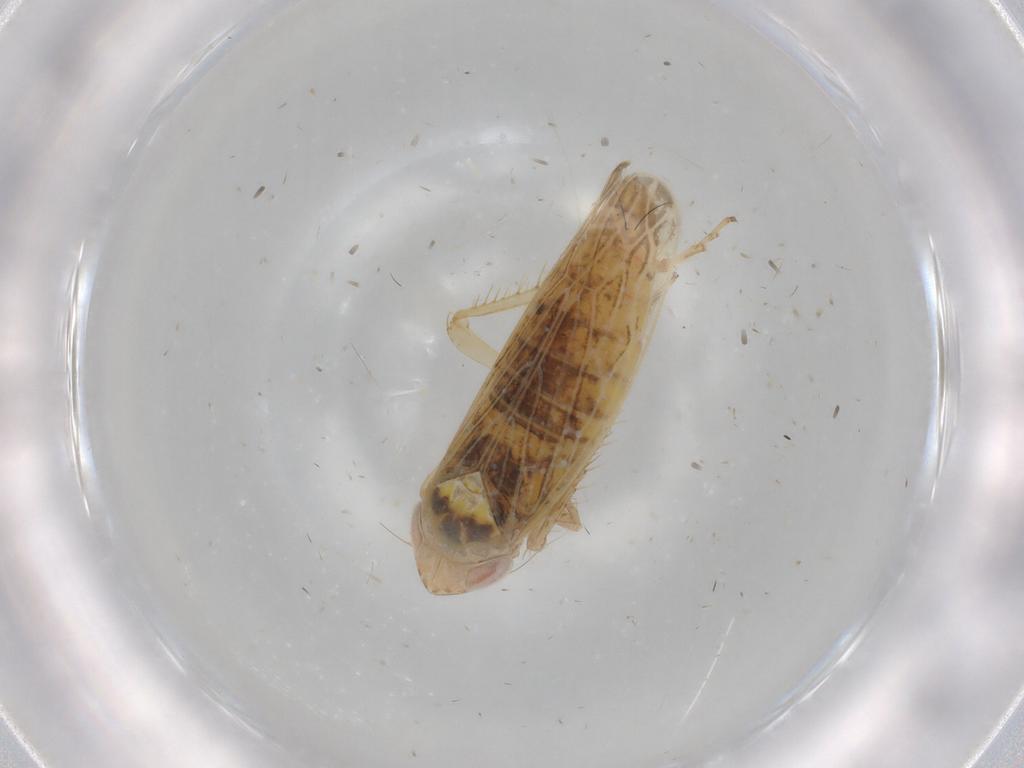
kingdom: Animalia
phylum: Arthropoda
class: Insecta
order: Hemiptera
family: Cicadellidae
